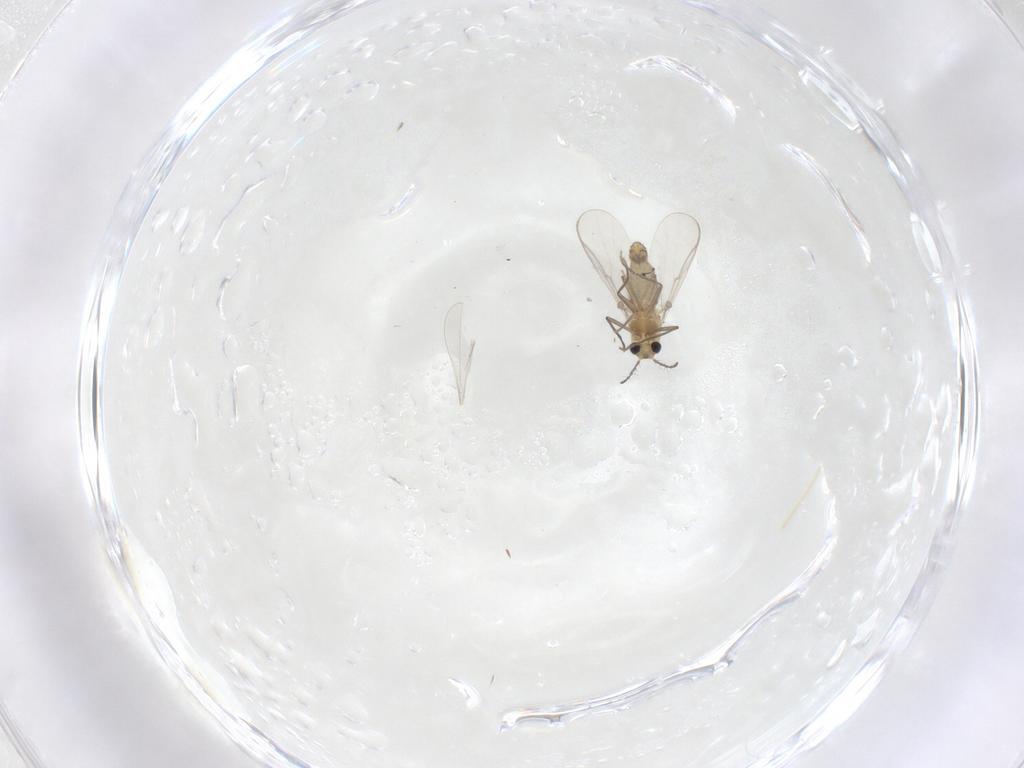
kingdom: Animalia
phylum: Arthropoda
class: Insecta
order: Diptera
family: Chironomidae
